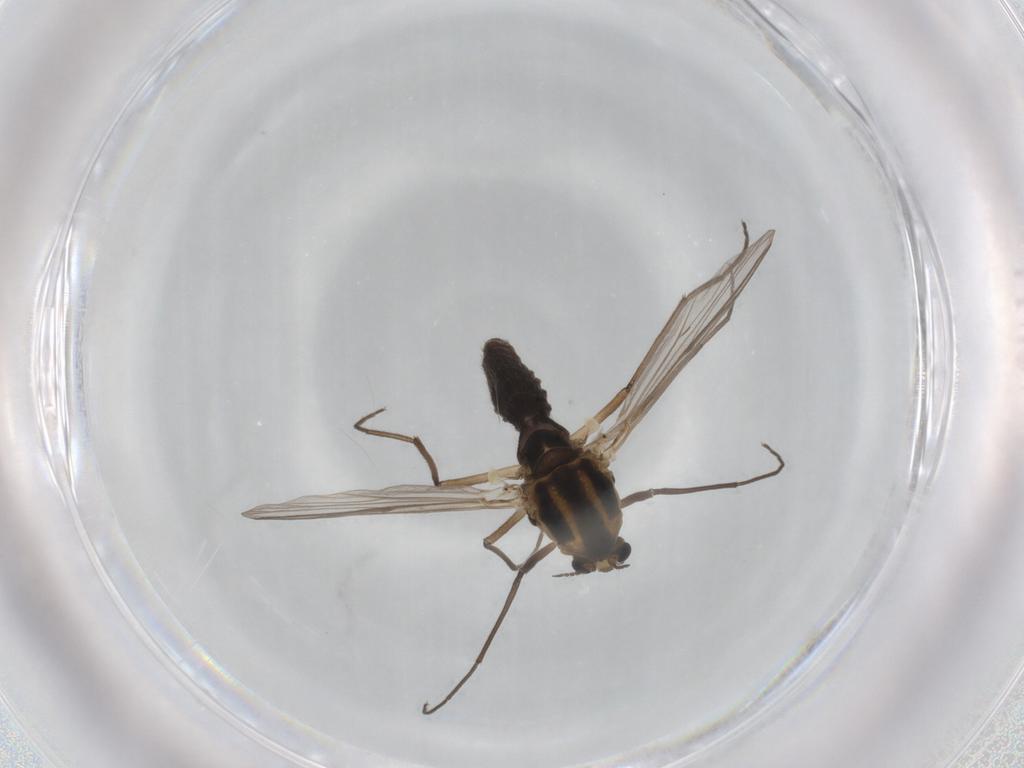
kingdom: Animalia
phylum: Arthropoda
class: Insecta
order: Diptera
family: Chironomidae
